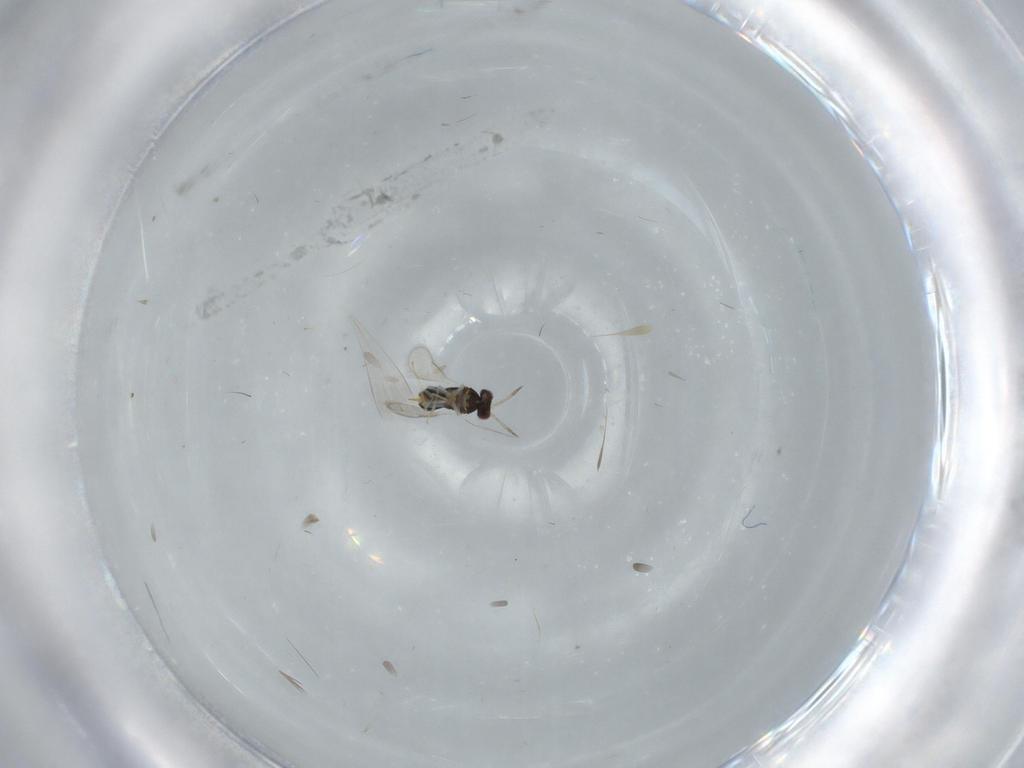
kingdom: Animalia
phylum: Arthropoda
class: Insecta
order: Hymenoptera
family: Aphelinidae
